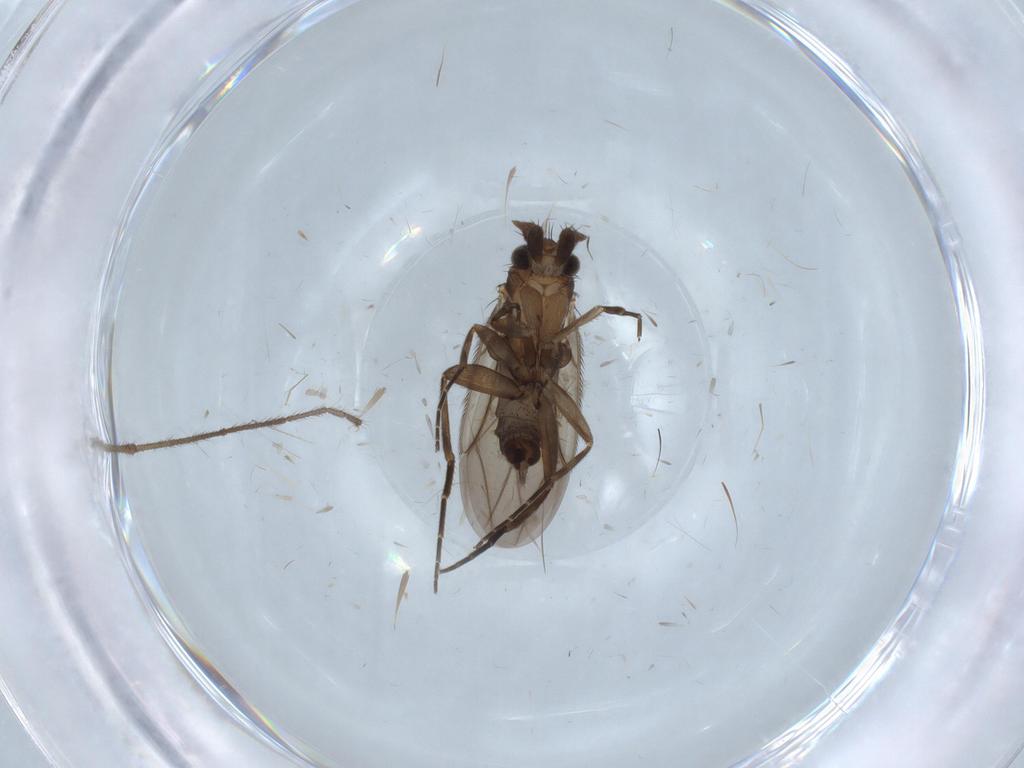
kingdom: Animalia
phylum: Arthropoda
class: Insecta
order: Diptera
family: Phoridae
